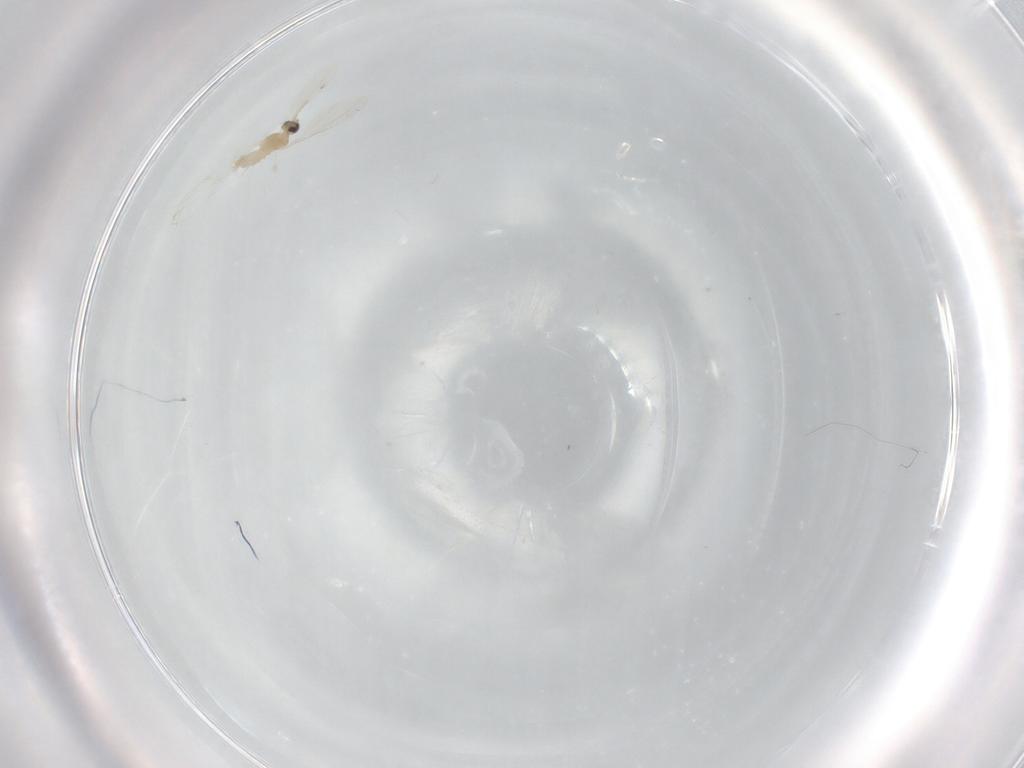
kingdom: Animalia
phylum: Arthropoda
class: Insecta
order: Diptera
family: Cecidomyiidae
